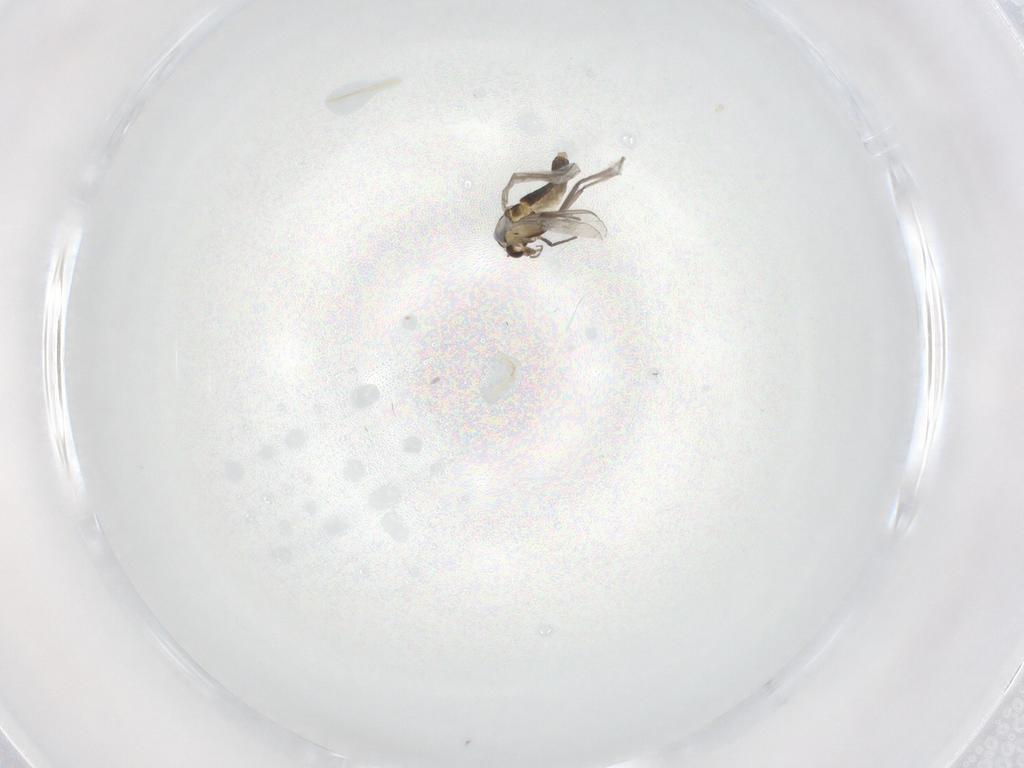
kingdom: Animalia
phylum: Arthropoda
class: Insecta
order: Diptera
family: Chironomidae
